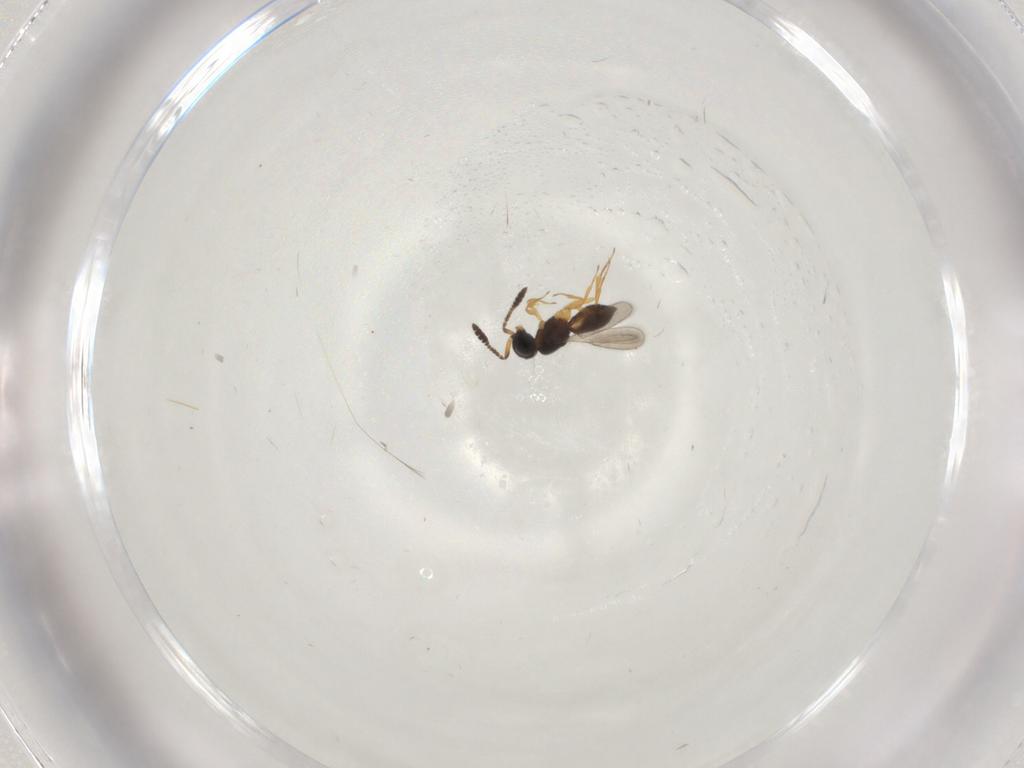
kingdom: Animalia
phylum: Arthropoda
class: Insecta
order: Hymenoptera
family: Scelionidae
